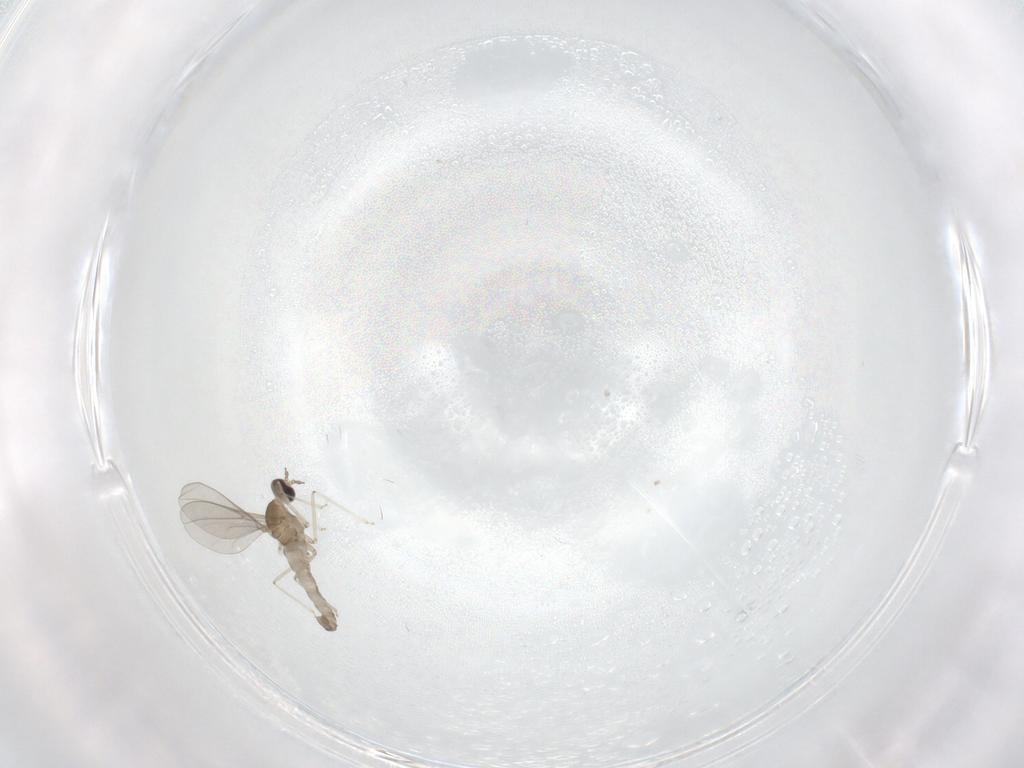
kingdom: Animalia
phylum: Arthropoda
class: Insecta
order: Diptera
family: Cecidomyiidae
